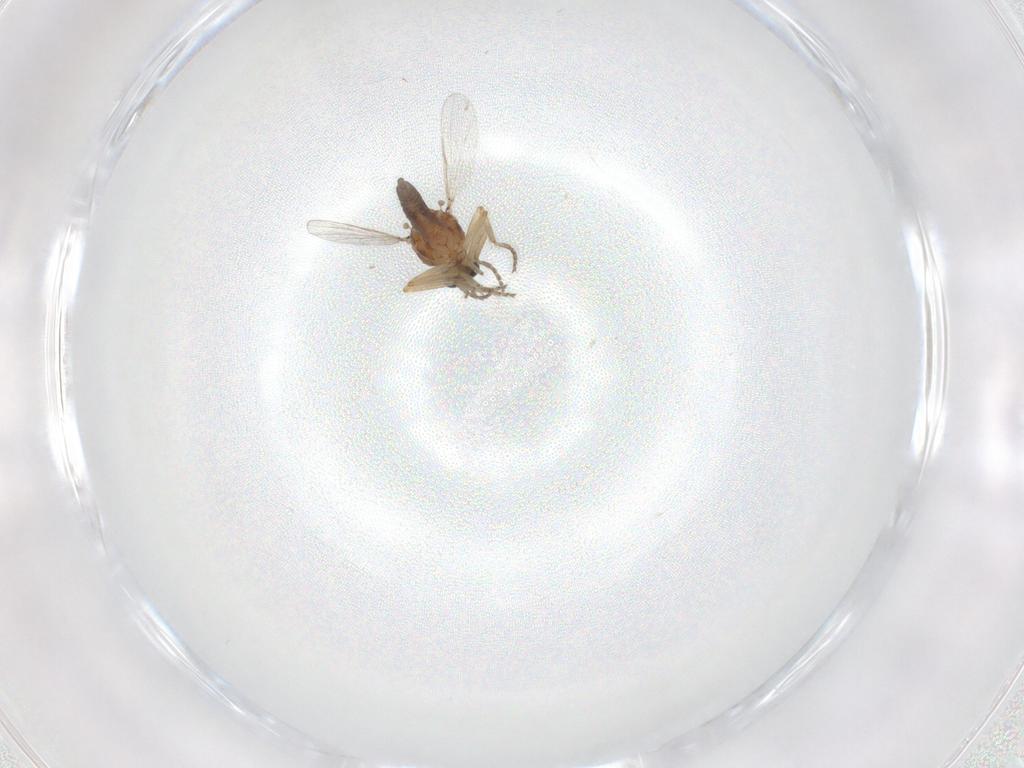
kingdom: Animalia
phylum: Arthropoda
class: Insecta
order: Diptera
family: Ceratopogonidae
